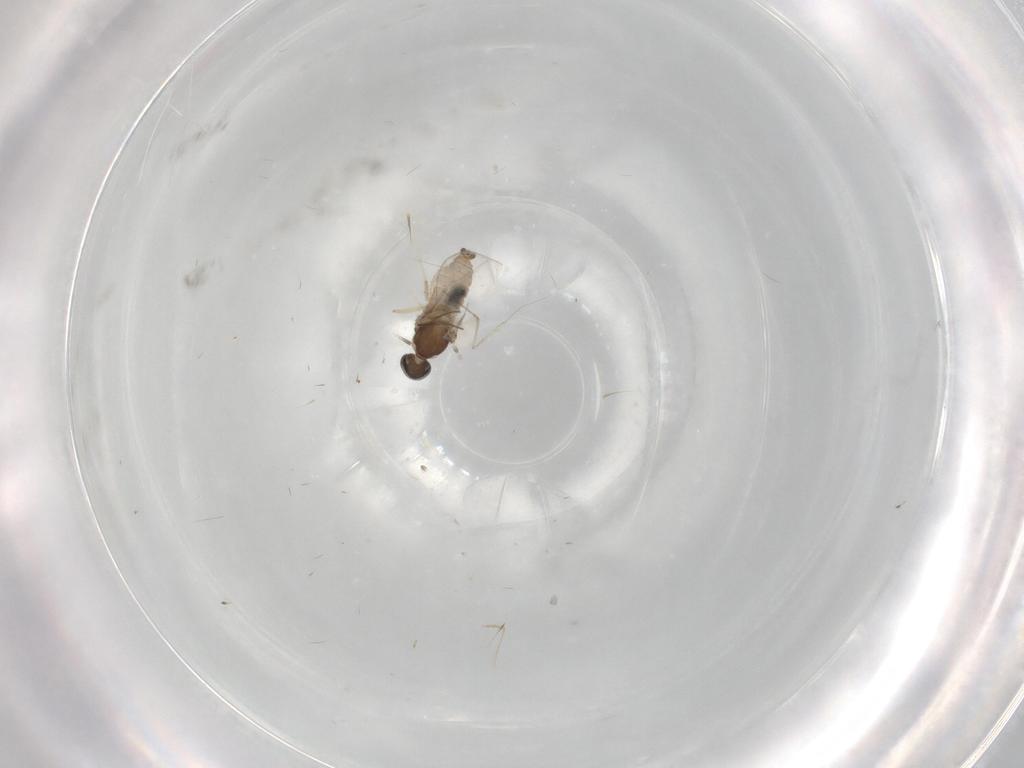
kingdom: Animalia
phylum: Arthropoda
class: Insecta
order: Diptera
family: Cecidomyiidae
